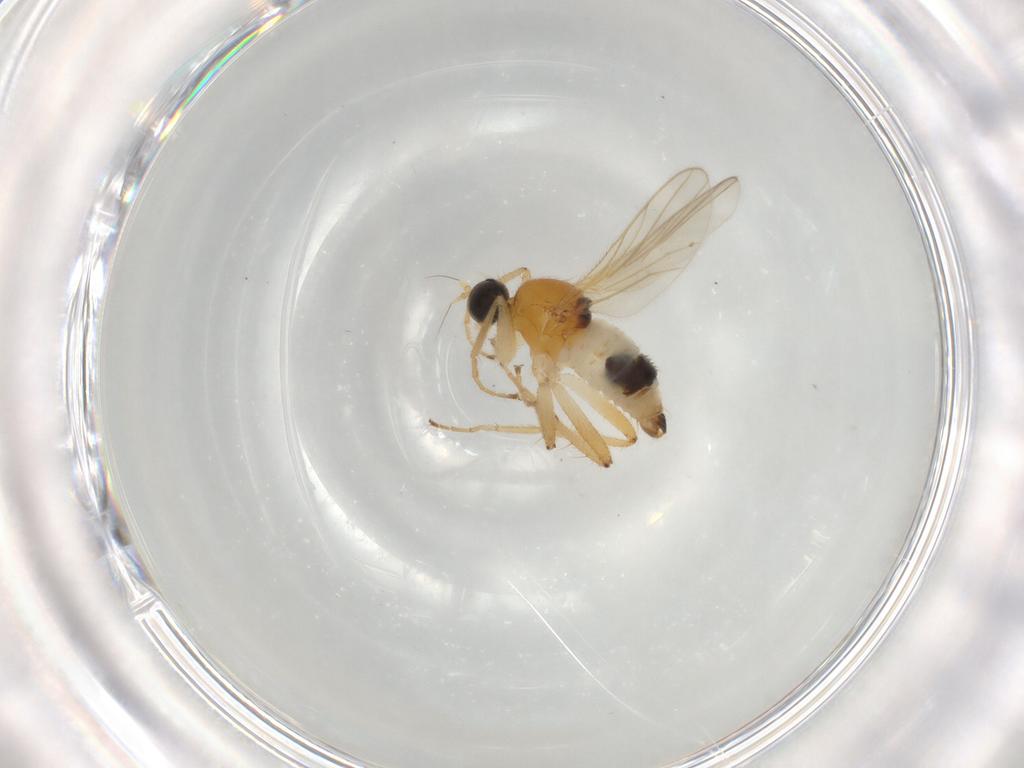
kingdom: Animalia
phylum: Arthropoda
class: Insecta
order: Diptera
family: Hybotidae
